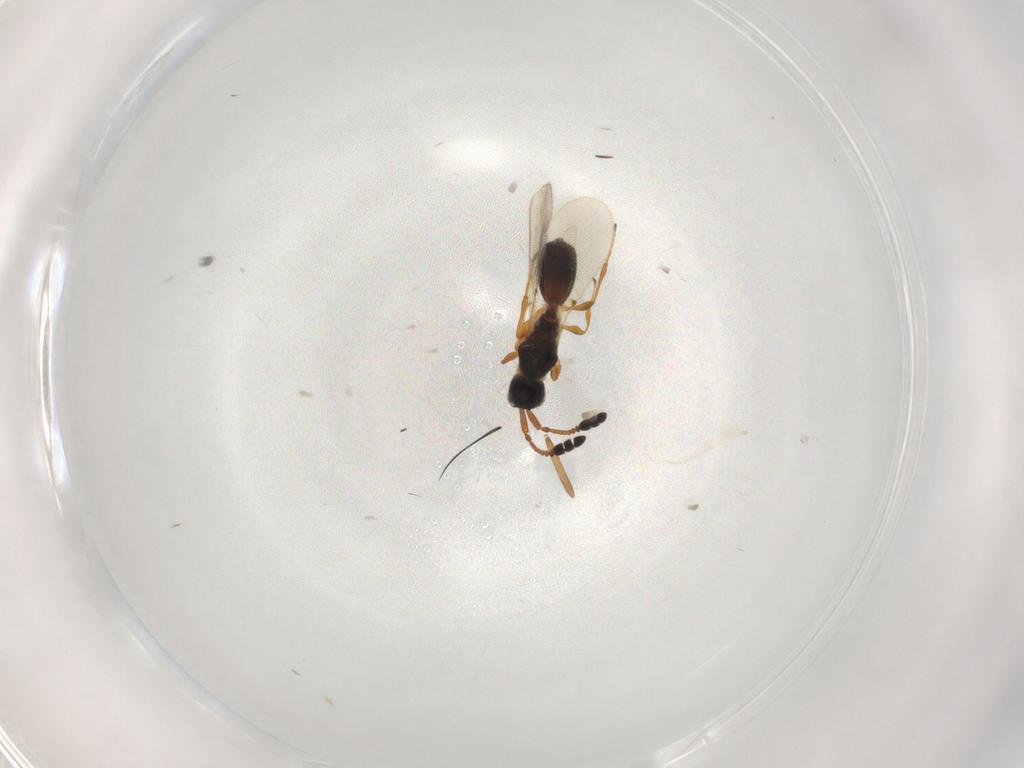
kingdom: Animalia
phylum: Arthropoda
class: Insecta
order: Hymenoptera
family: Diapriidae
